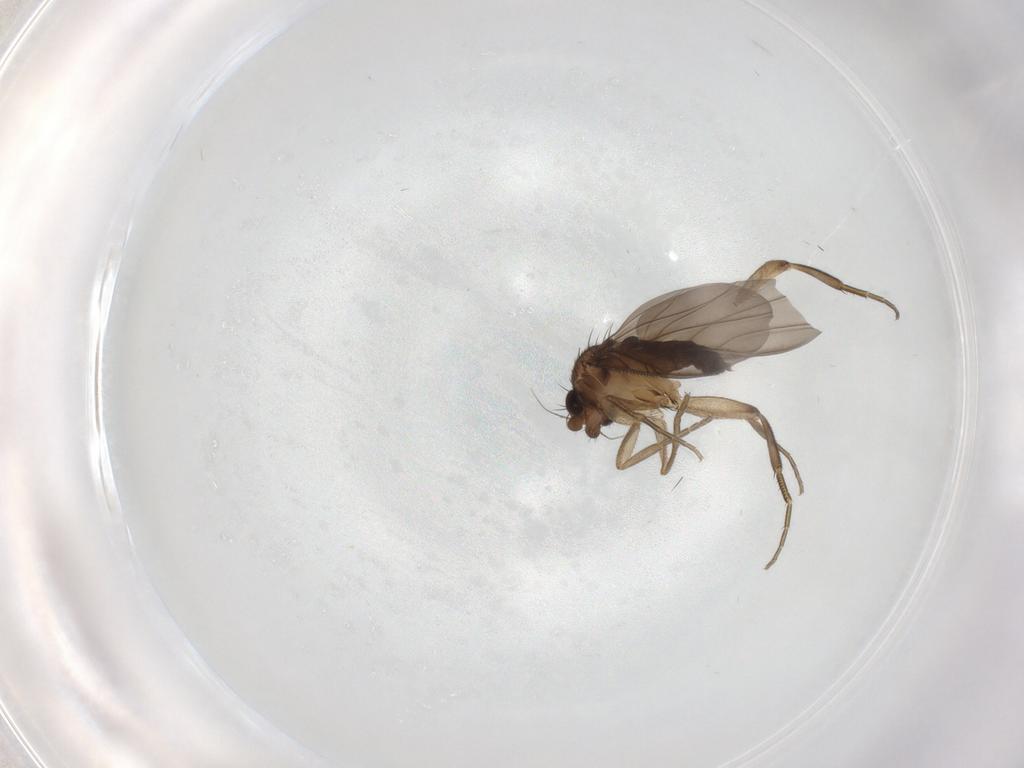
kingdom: Animalia
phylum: Arthropoda
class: Insecta
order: Diptera
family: Phoridae
